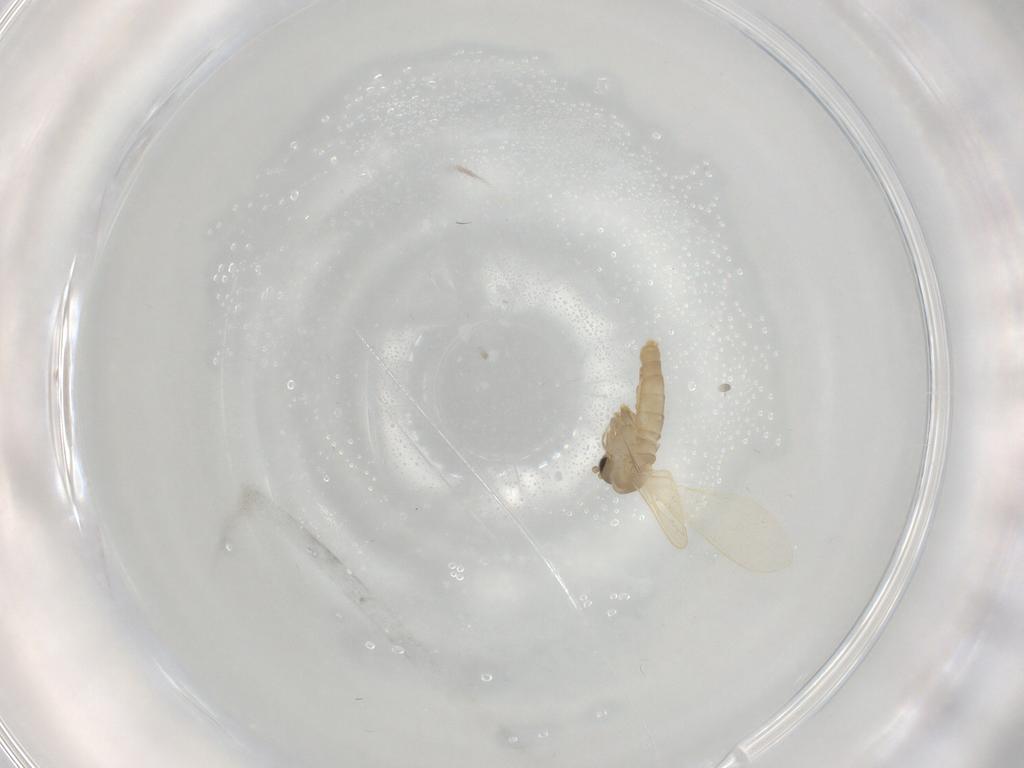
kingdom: Animalia
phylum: Arthropoda
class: Insecta
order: Diptera
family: Psychodidae
